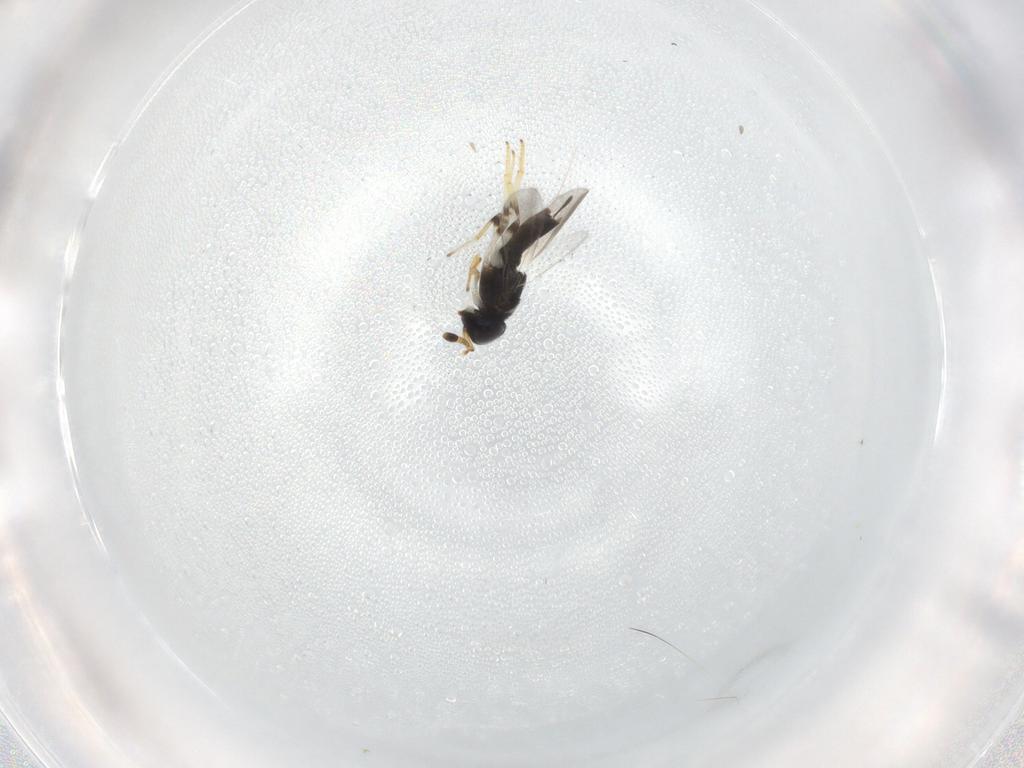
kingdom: Animalia
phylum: Arthropoda
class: Insecta
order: Hymenoptera
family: Encyrtidae
